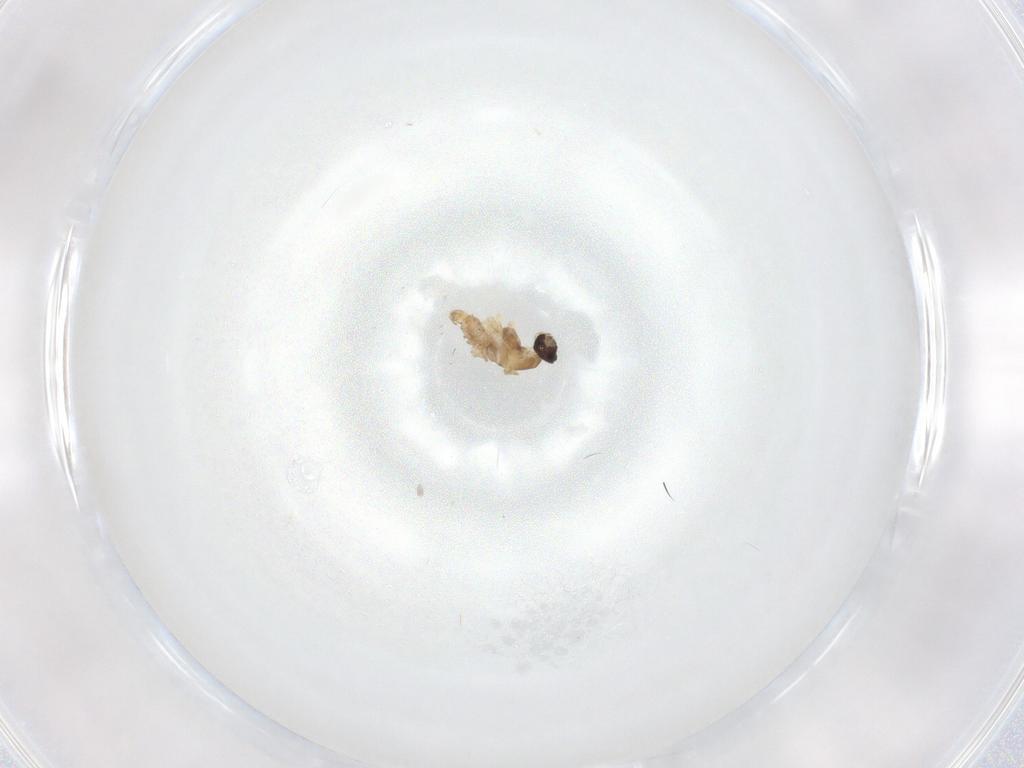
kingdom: Animalia
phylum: Arthropoda
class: Insecta
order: Diptera
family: Cecidomyiidae
